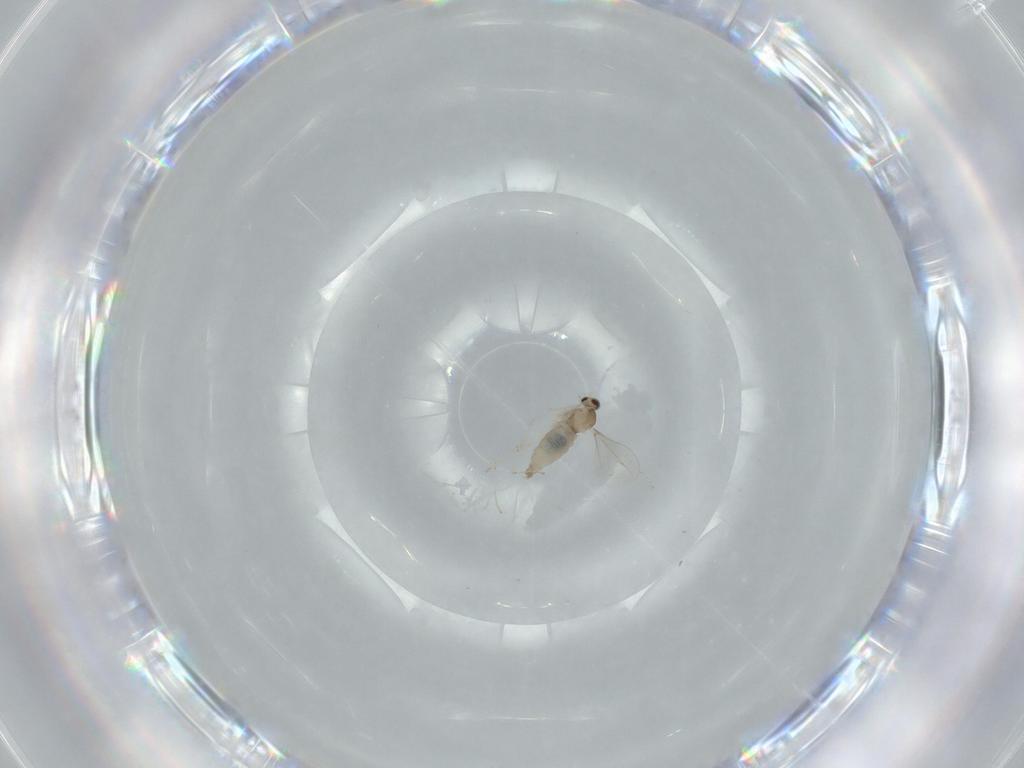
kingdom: Animalia
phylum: Arthropoda
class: Insecta
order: Diptera
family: Cecidomyiidae
